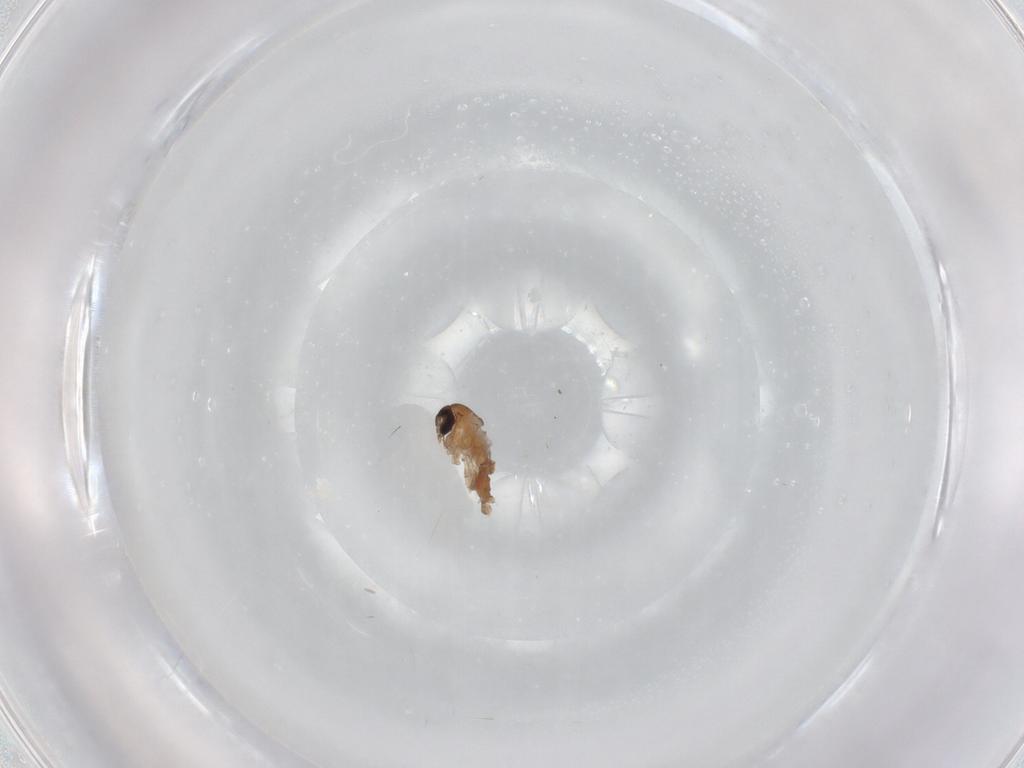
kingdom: Animalia
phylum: Arthropoda
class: Insecta
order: Diptera
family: Psychodidae
